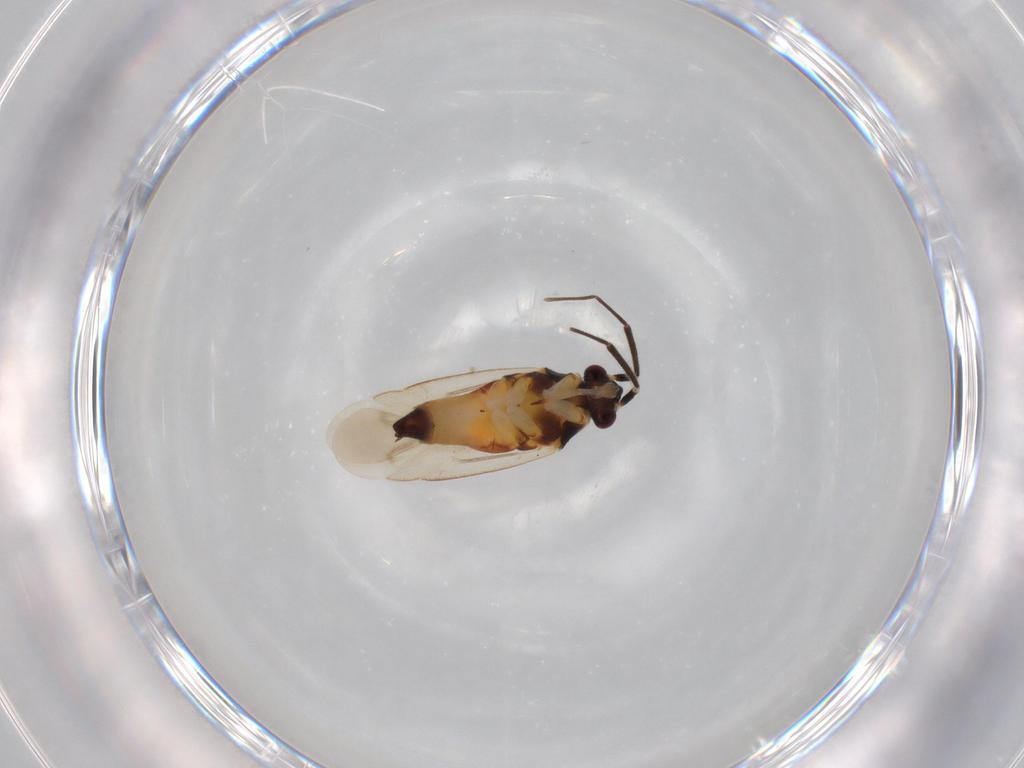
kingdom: Animalia
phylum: Arthropoda
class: Insecta
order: Hemiptera
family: Miridae
